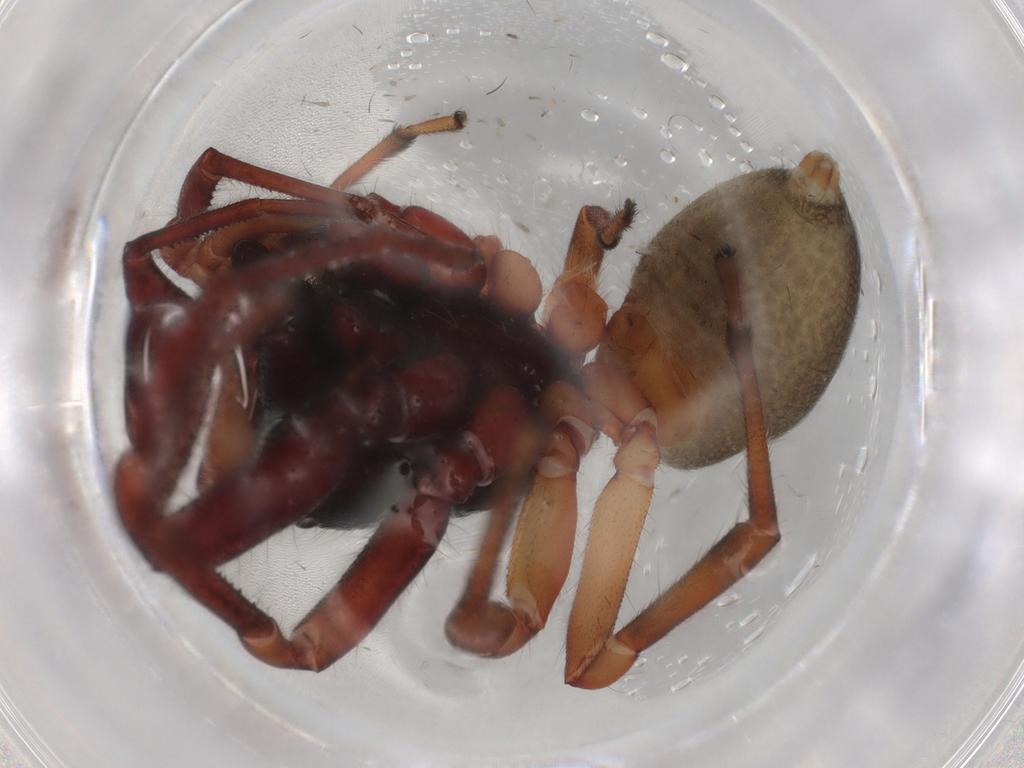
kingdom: Animalia
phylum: Arthropoda
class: Arachnida
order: Araneae
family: Trachelidae
